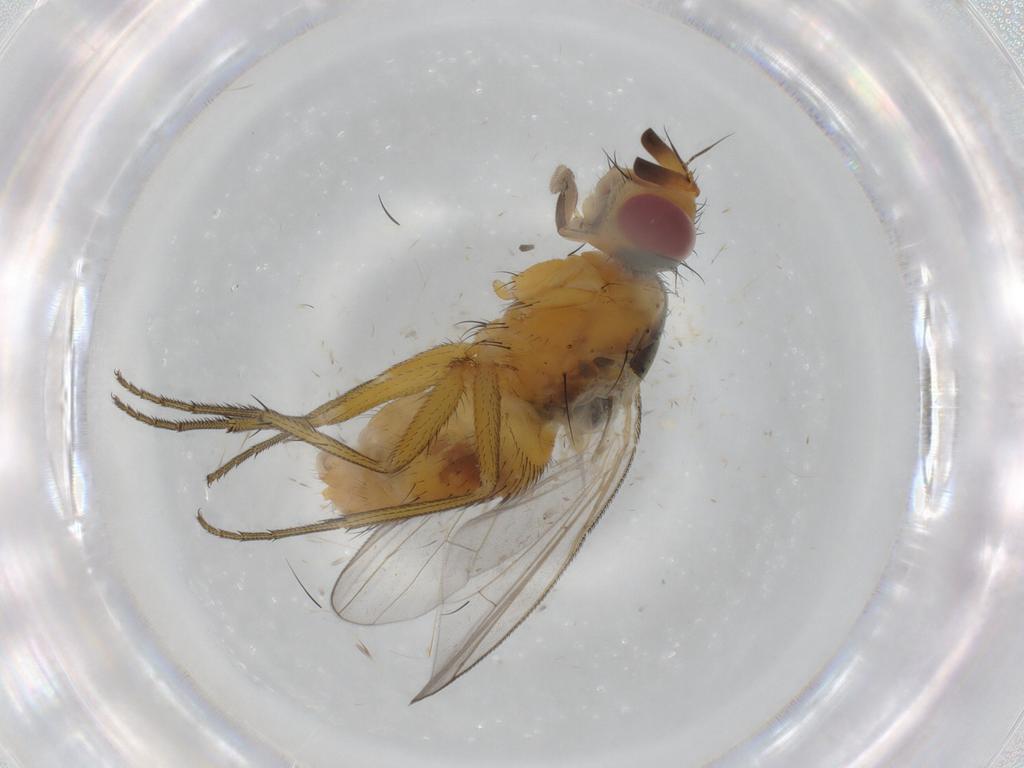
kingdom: Animalia
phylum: Arthropoda
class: Insecta
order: Diptera
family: Muscidae
